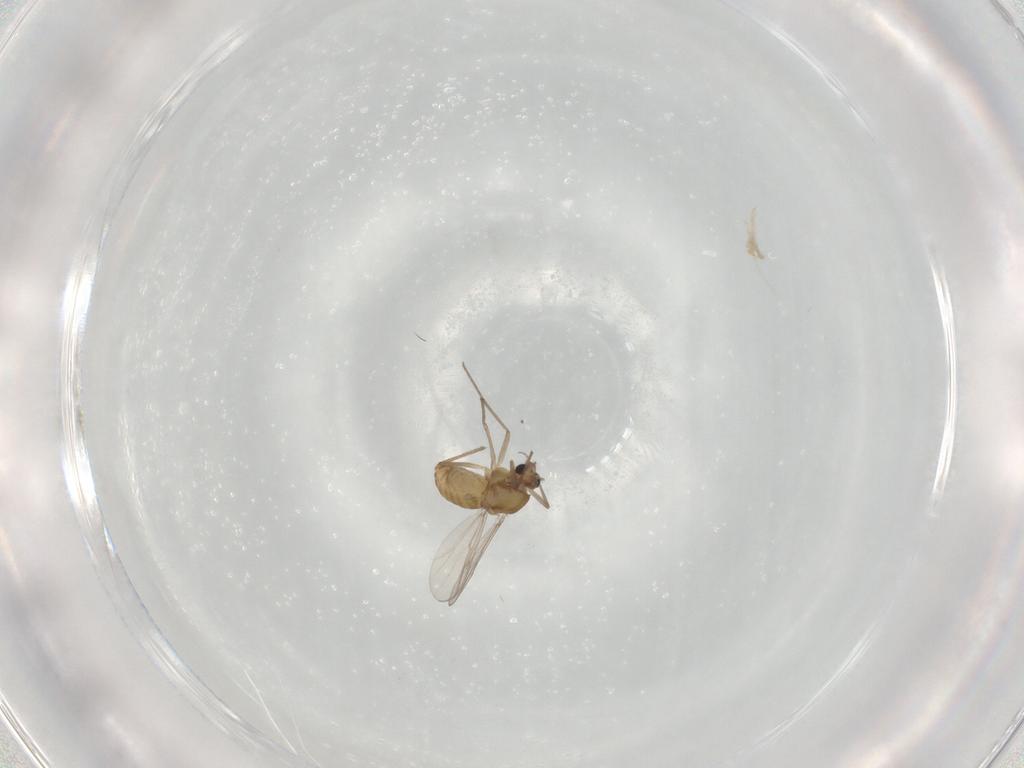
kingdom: Animalia
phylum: Arthropoda
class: Insecta
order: Diptera
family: Chironomidae
